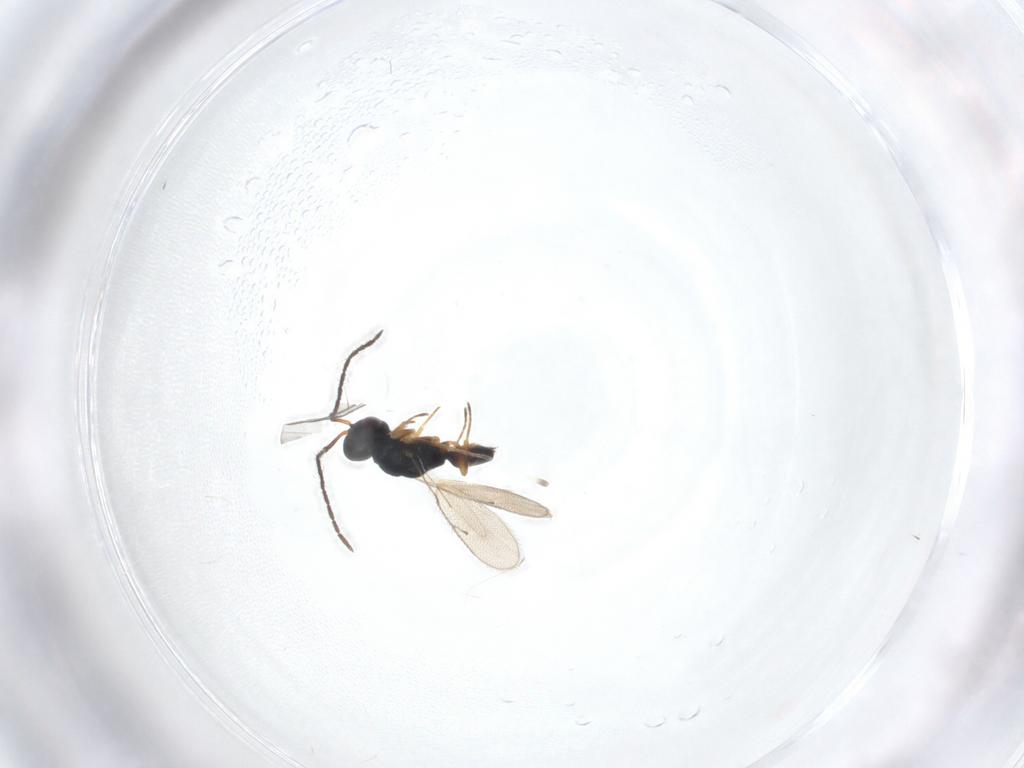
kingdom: Animalia
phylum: Arthropoda
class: Insecta
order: Hymenoptera
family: Pteromalidae
